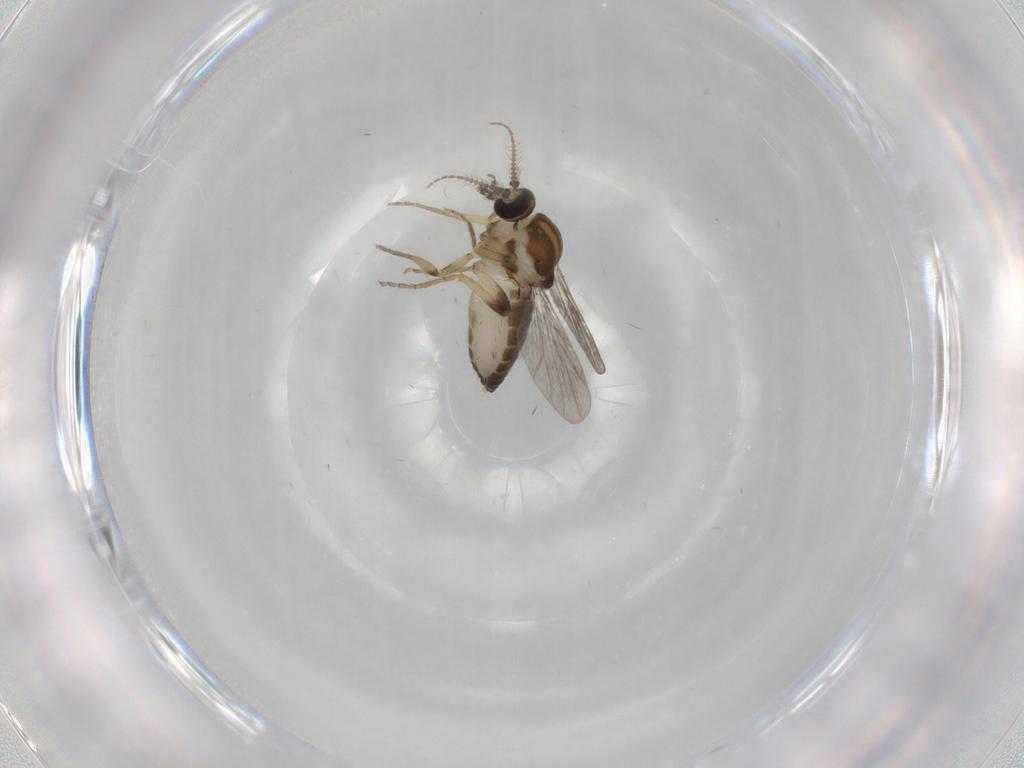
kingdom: Animalia
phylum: Arthropoda
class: Insecta
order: Diptera
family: Ceratopogonidae
